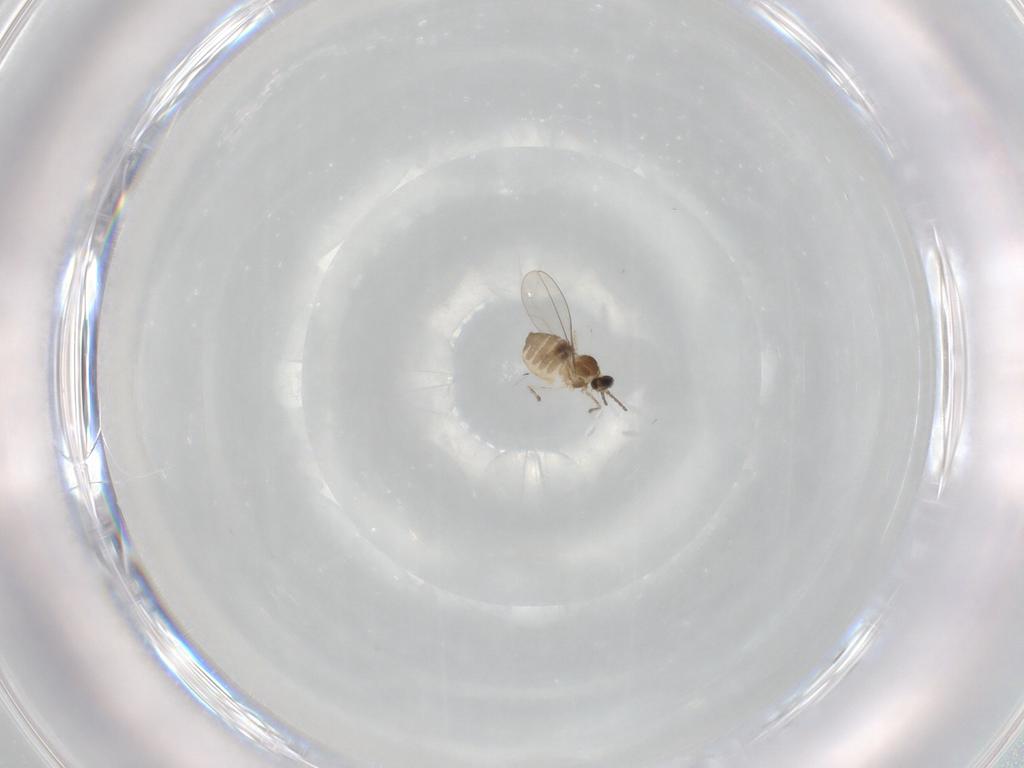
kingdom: Animalia
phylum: Arthropoda
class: Insecta
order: Diptera
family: Cecidomyiidae
